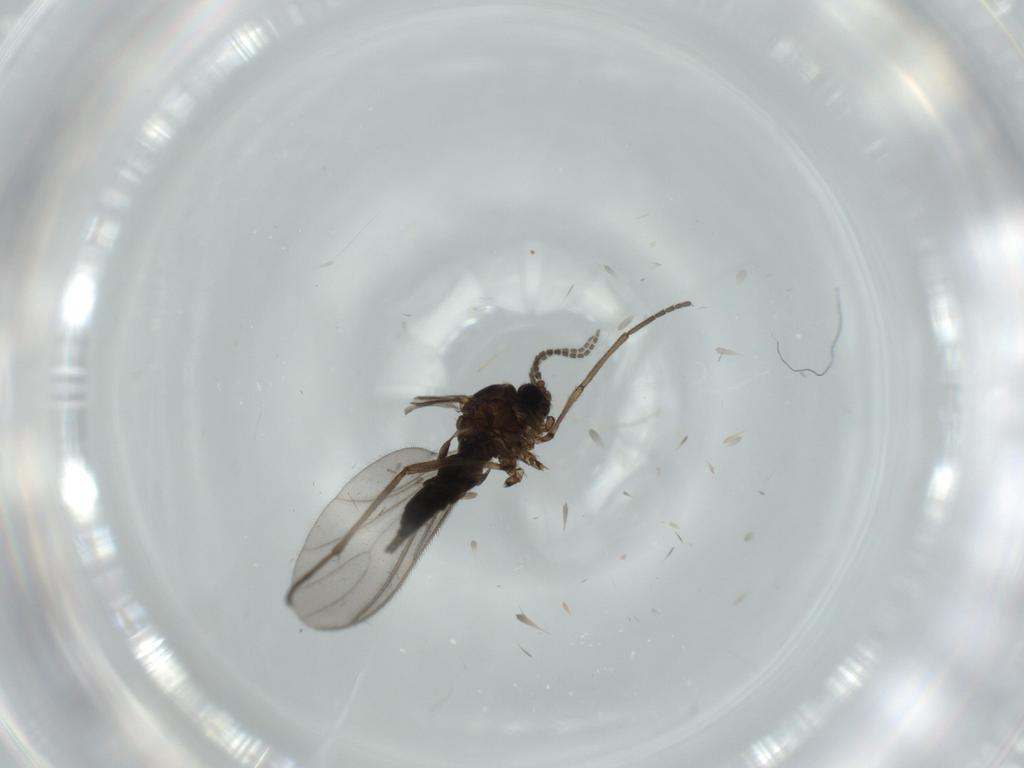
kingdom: Animalia
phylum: Arthropoda
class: Insecta
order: Diptera
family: Sciaridae
